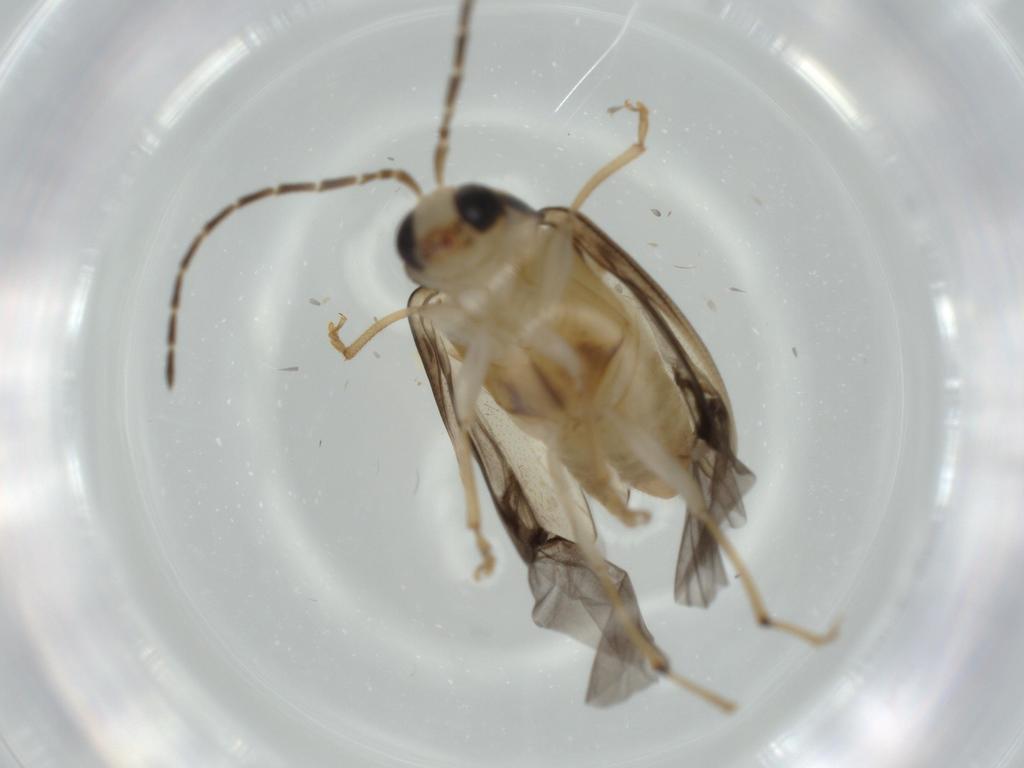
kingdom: Animalia
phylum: Arthropoda
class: Insecta
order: Coleoptera
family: Chrysomelidae
